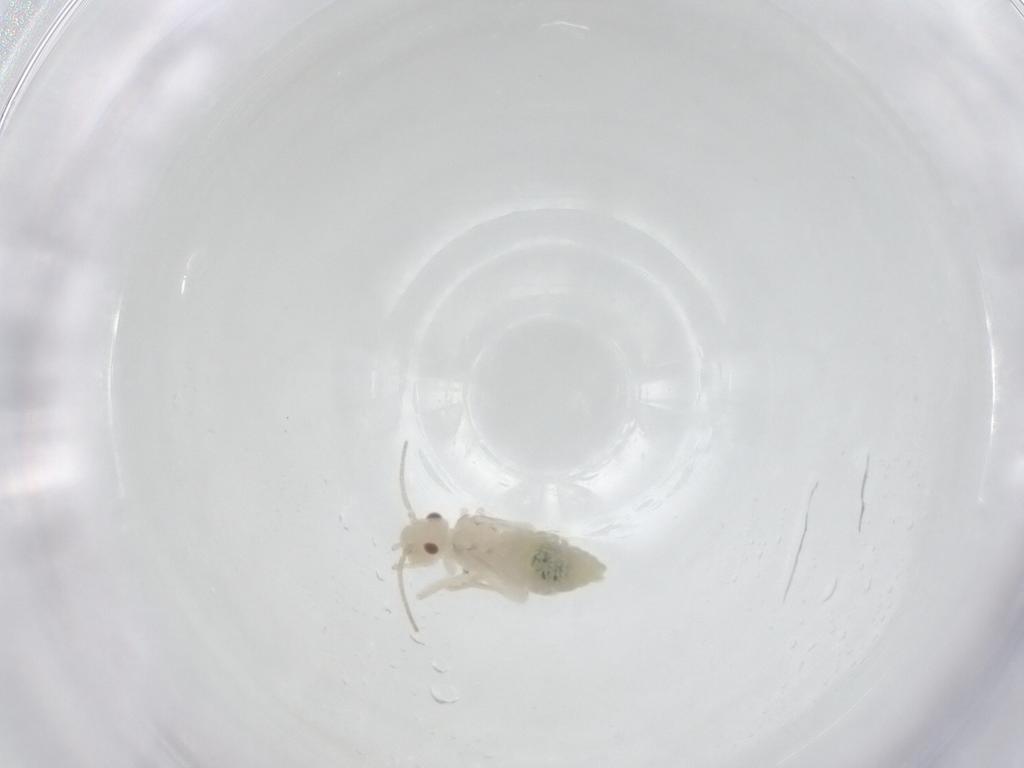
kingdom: Animalia
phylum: Arthropoda
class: Insecta
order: Psocodea
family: Caeciliusidae
